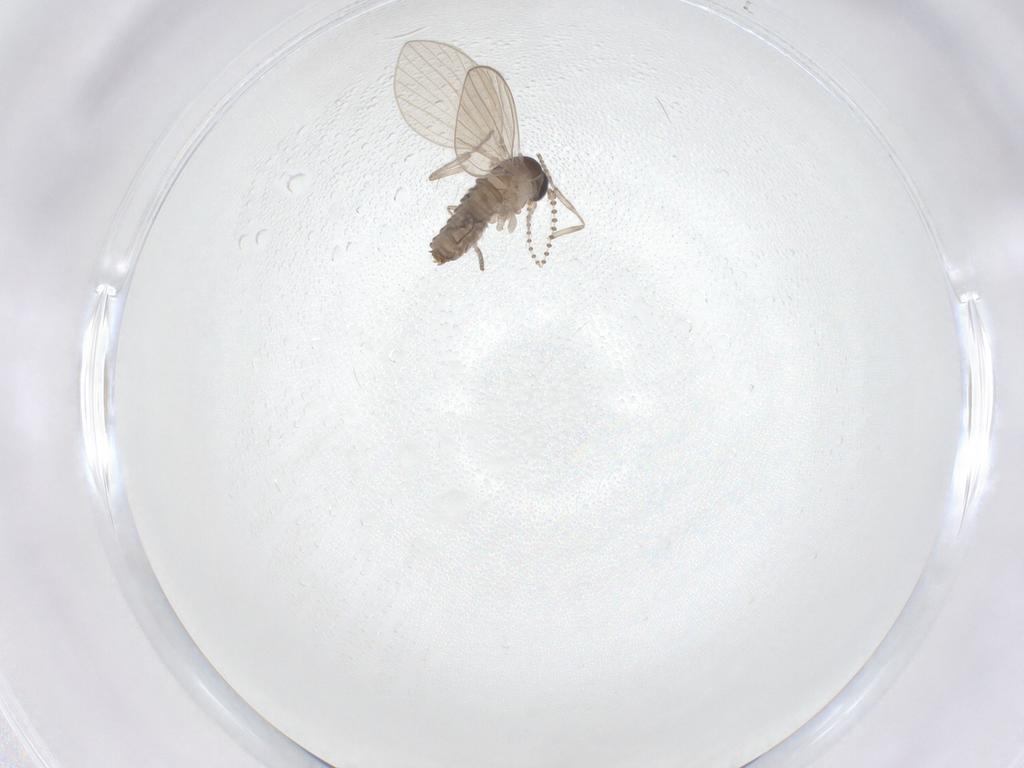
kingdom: Animalia
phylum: Arthropoda
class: Insecta
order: Diptera
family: Psychodidae
